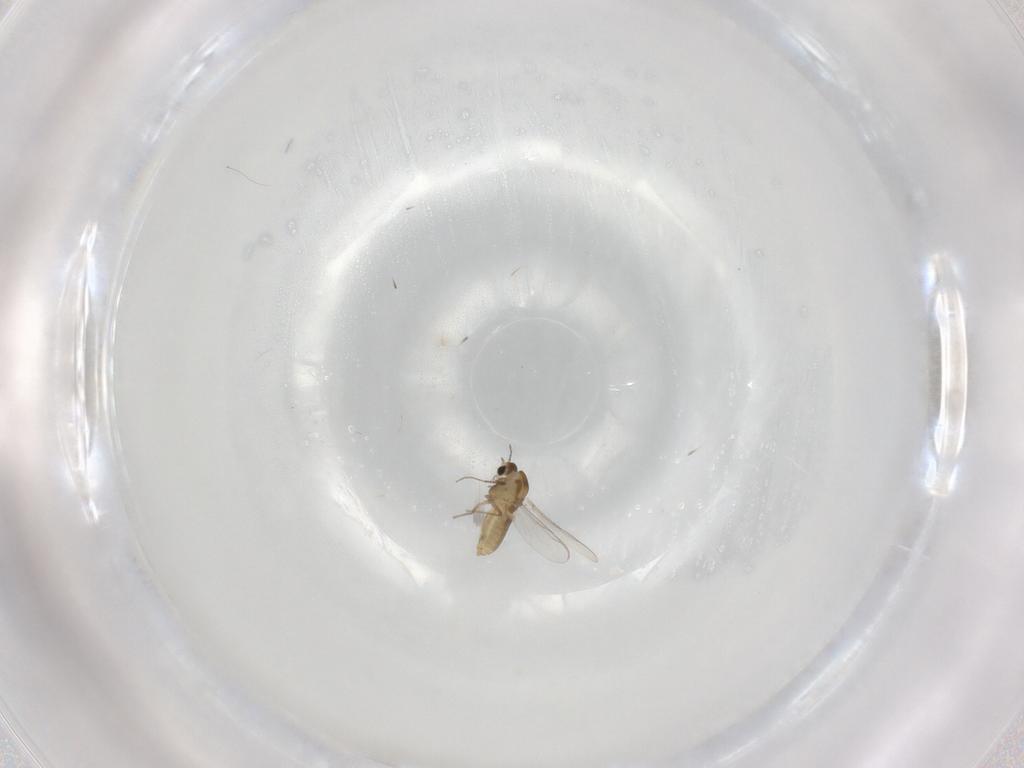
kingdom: Animalia
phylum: Arthropoda
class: Insecta
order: Diptera
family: Chironomidae
